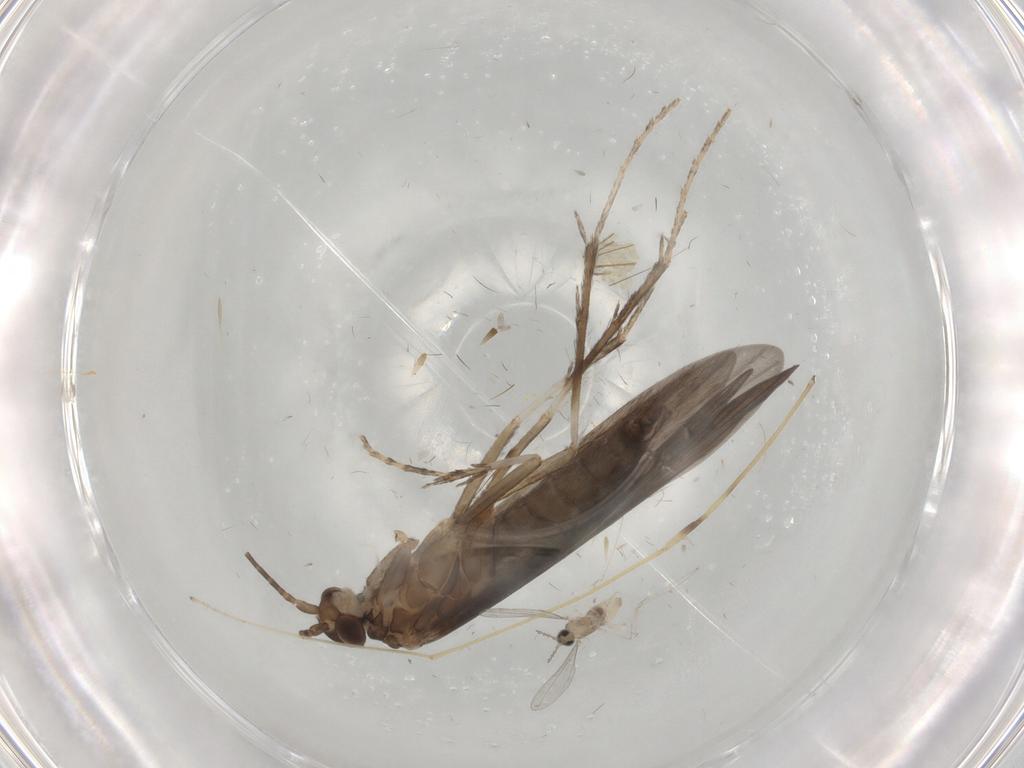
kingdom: Animalia
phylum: Arthropoda
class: Insecta
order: Trichoptera
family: Xiphocentronidae
